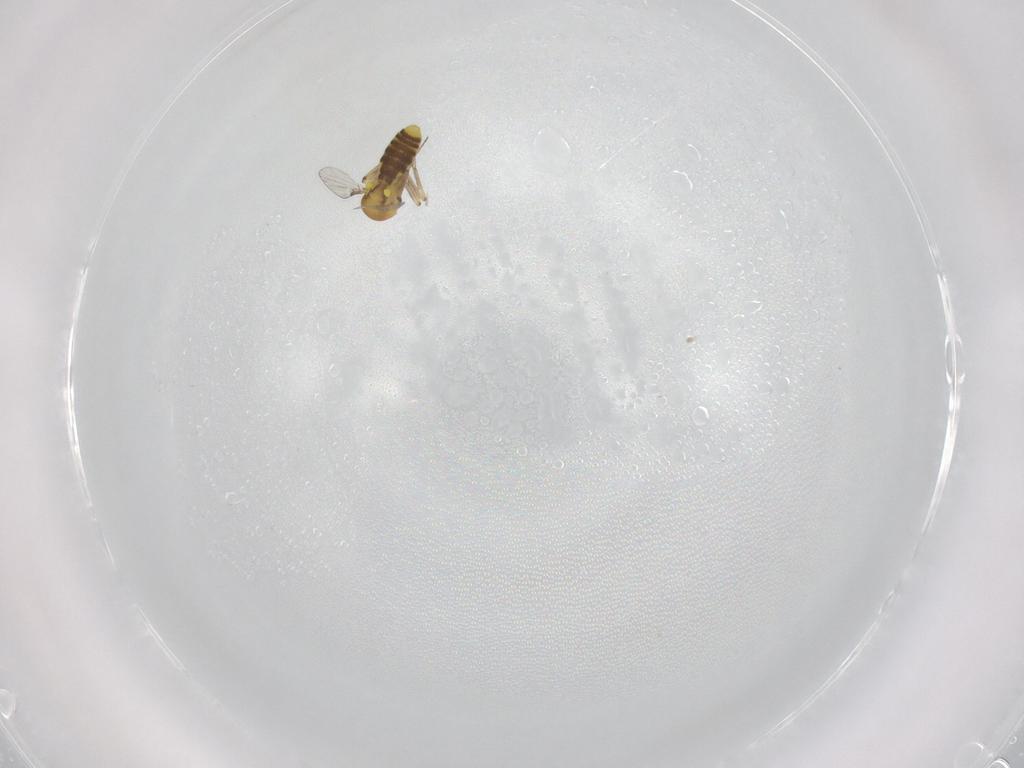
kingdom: Animalia
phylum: Arthropoda
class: Insecta
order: Diptera
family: Ceratopogonidae
